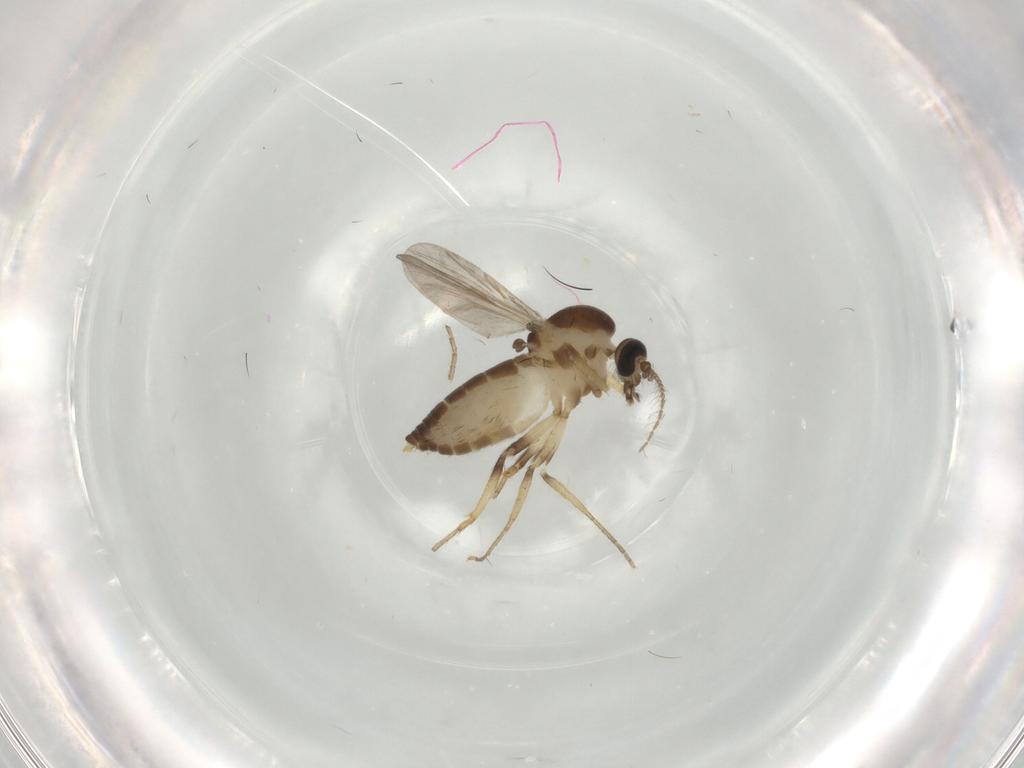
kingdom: Animalia
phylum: Arthropoda
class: Insecta
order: Diptera
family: Ceratopogonidae
